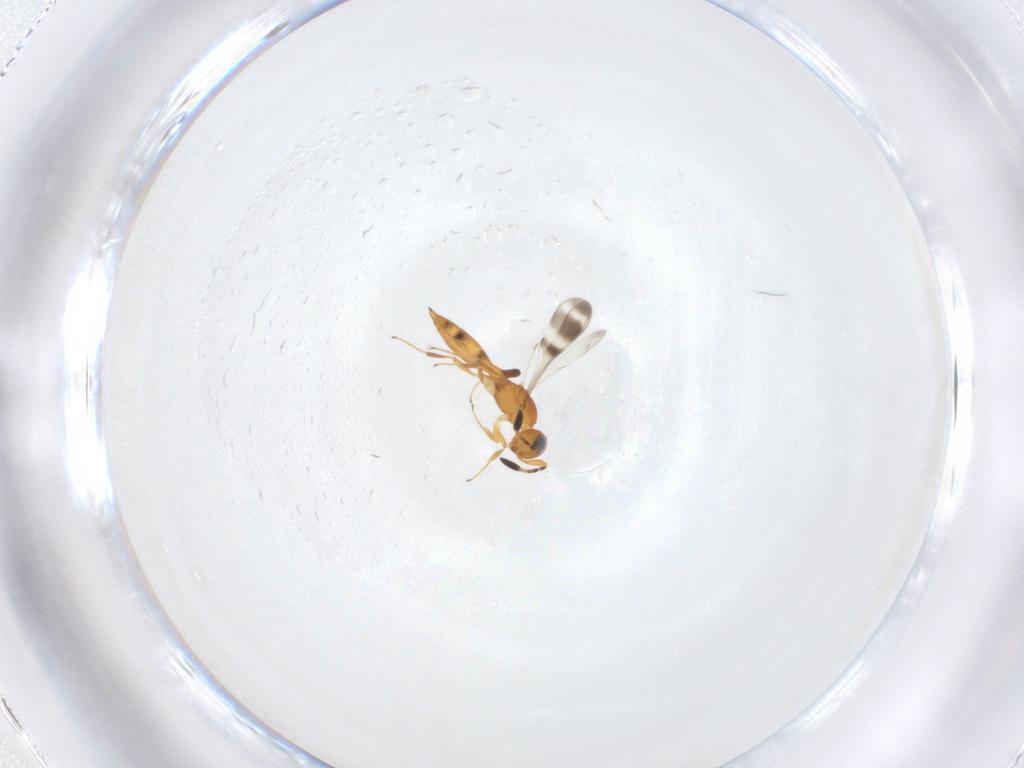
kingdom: Animalia
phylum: Arthropoda
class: Insecta
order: Hymenoptera
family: Scelionidae
